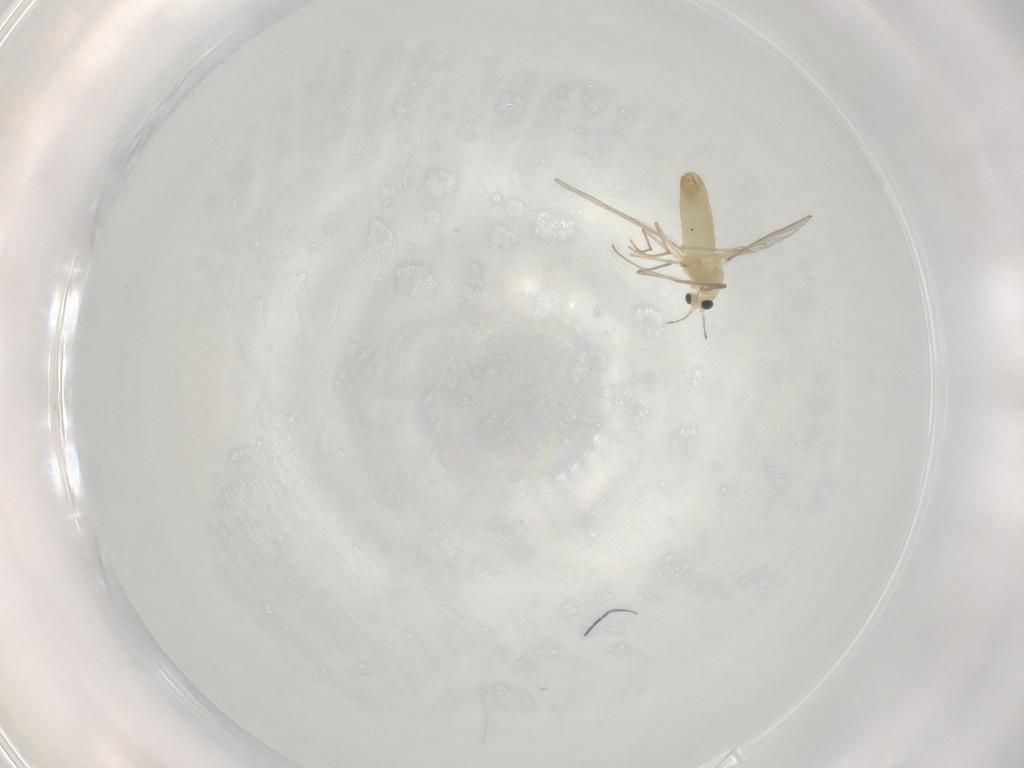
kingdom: Animalia
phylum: Arthropoda
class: Insecta
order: Diptera
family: Chironomidae
